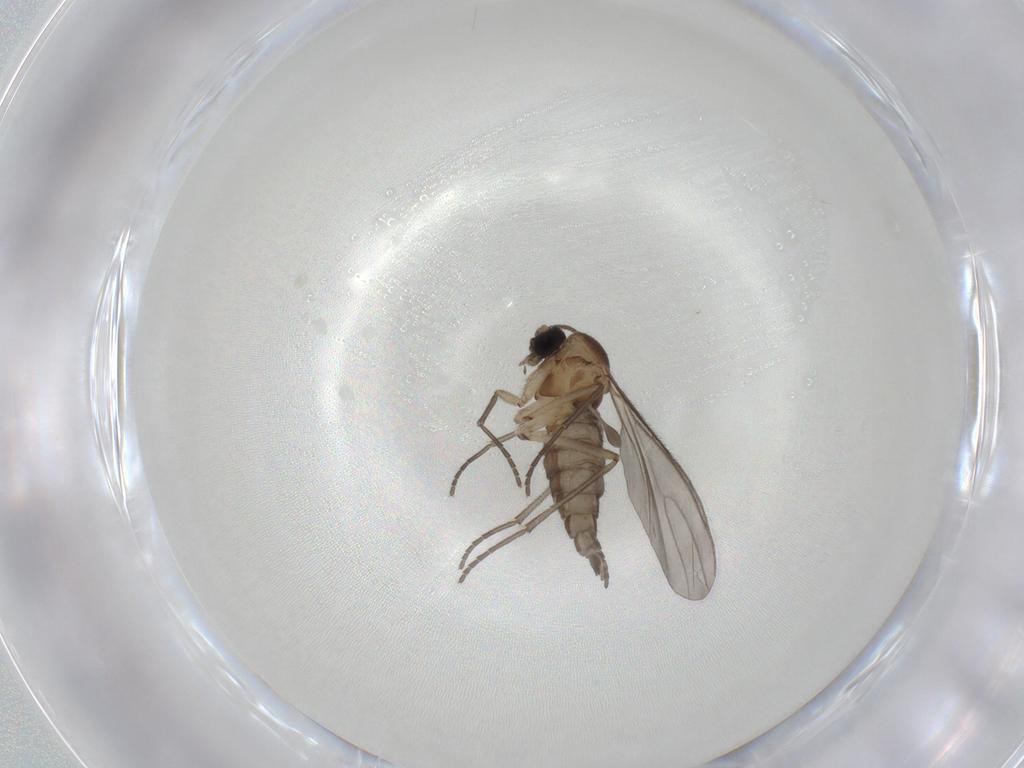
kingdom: Animalia
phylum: Arthropoda
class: Insecta
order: Diptera
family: Sciaridae
